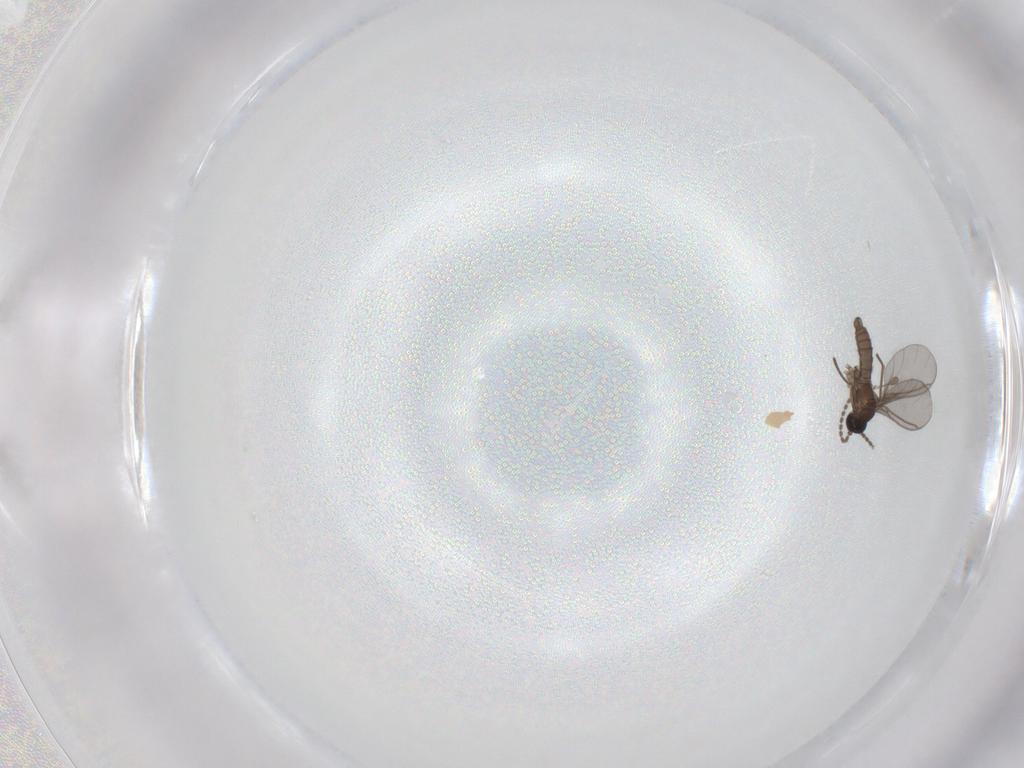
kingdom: Animalia
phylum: Arthropoda
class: Insecta
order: Diptera
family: Sciaridae
